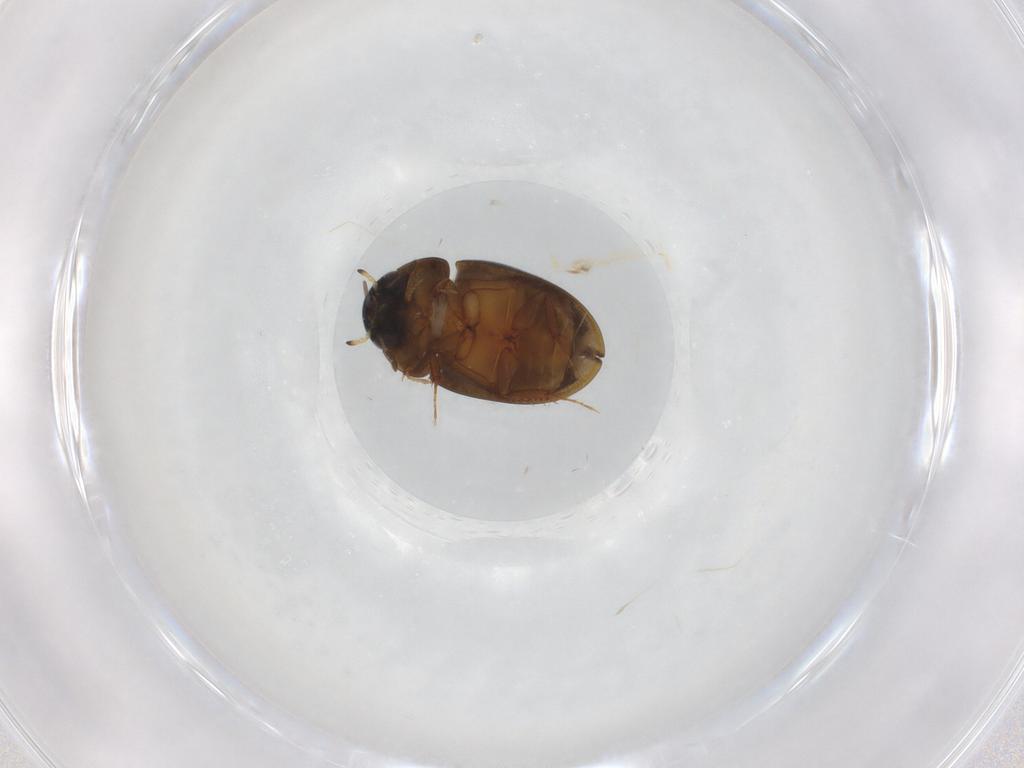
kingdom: Animalia
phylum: Arthropoda
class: Insecta
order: Coleoptera
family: Hydrophilidae
